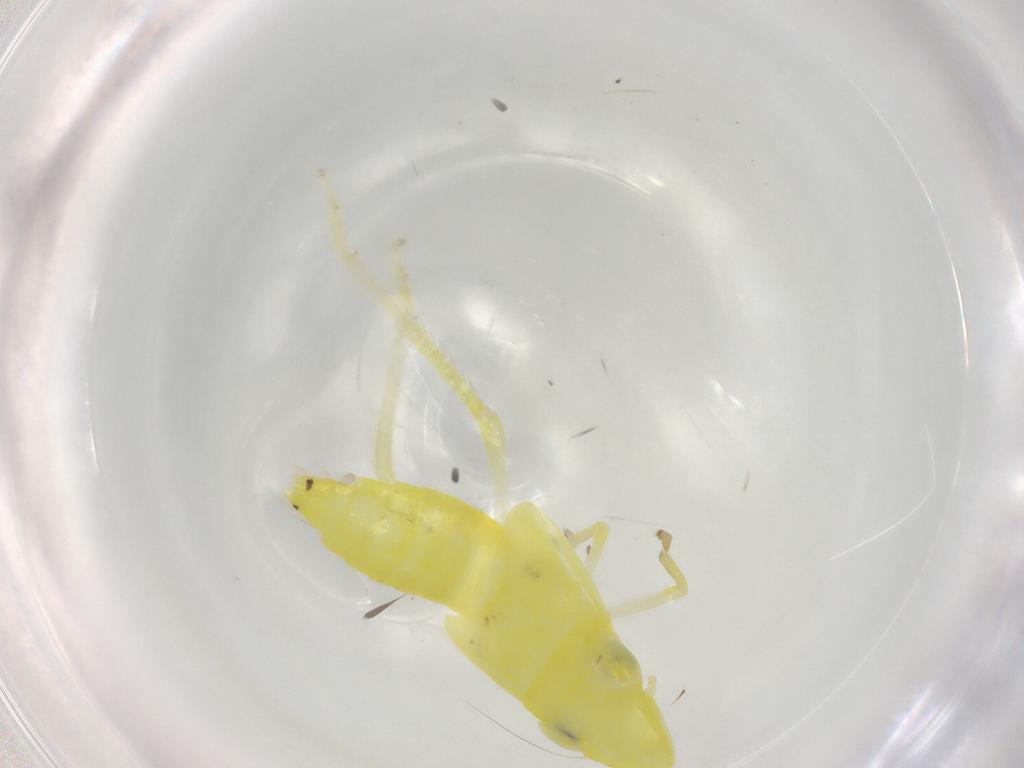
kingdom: Animalia
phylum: Arthropoda
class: Insecta
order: Hemiptera
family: Cicadellidae
